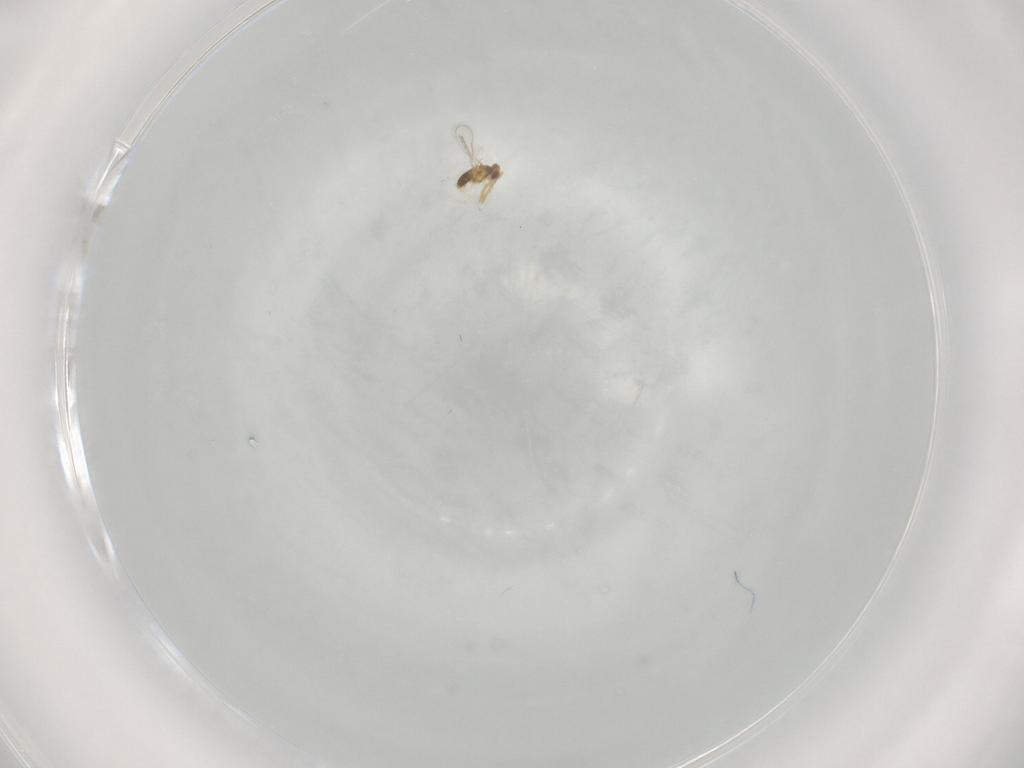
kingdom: Animalia
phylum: Arthropoda
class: Insecta
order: Hymenoptera
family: Aphelinidae
